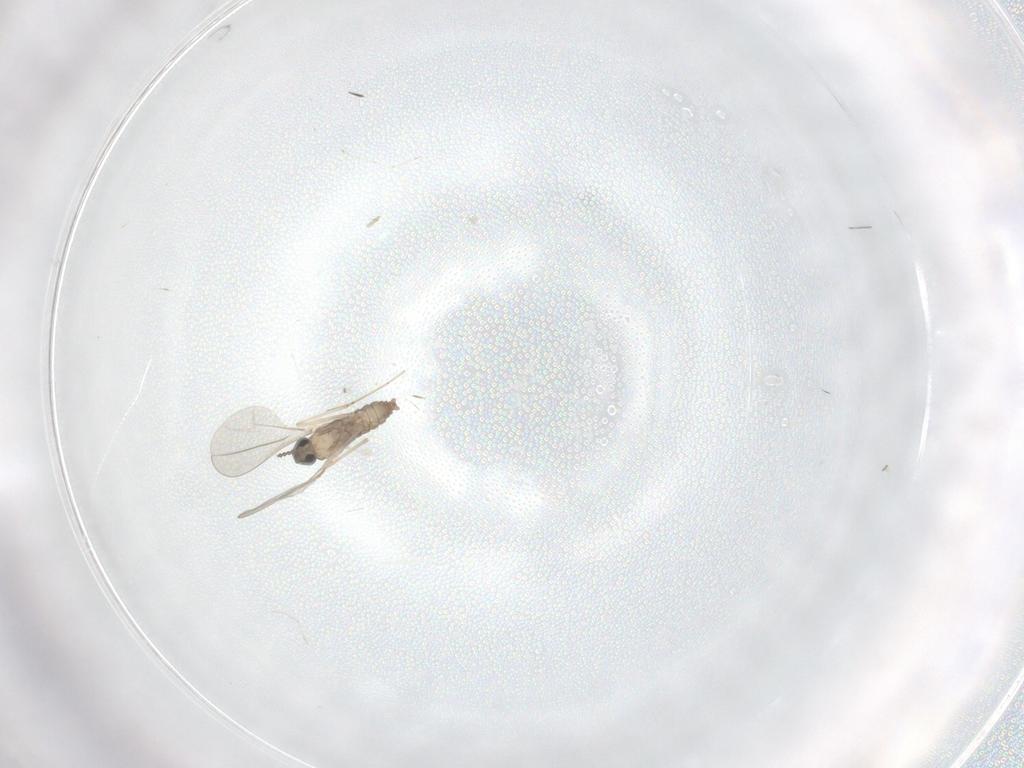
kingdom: Animalia
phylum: Arthropoda
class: Insecta
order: Diptera
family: Cecidomyiidae
